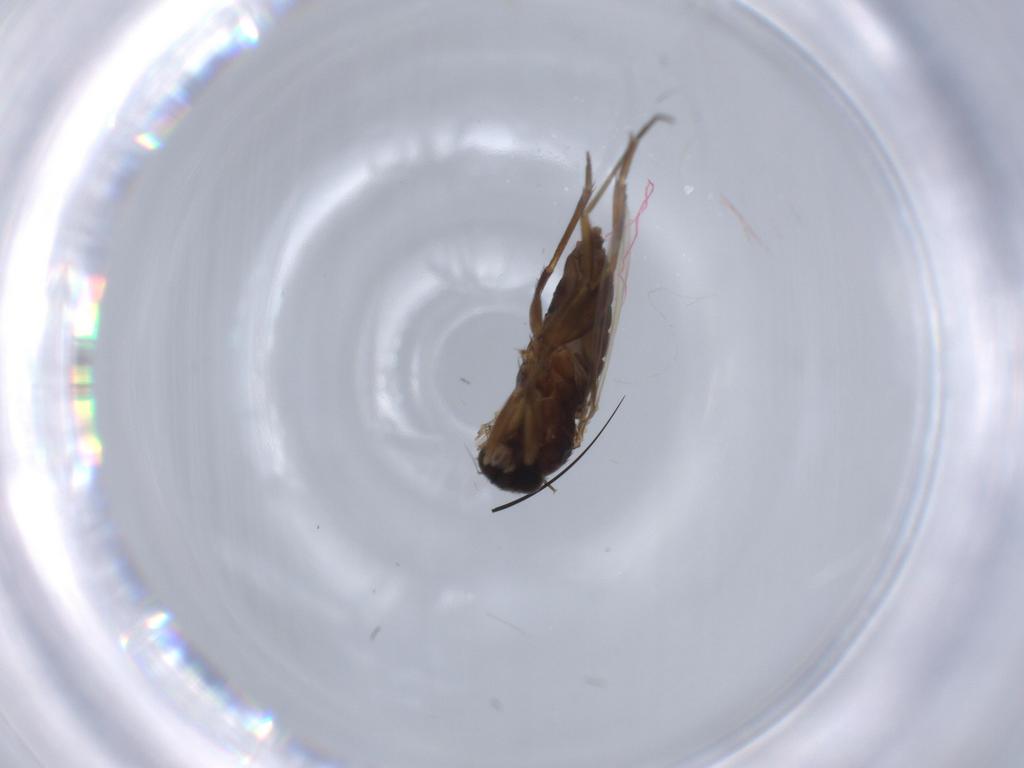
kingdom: Animalia
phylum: Arthropoda
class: Insecta
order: Diptera
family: Phoridae
